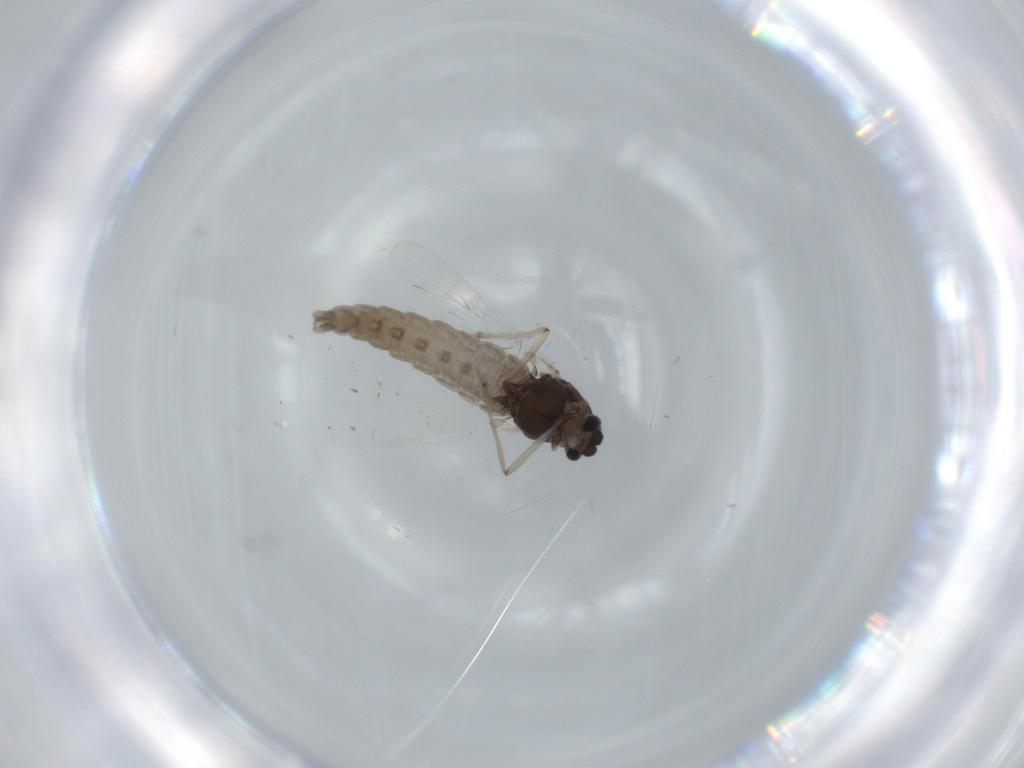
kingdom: Animalia
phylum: Arthropoda
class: Insecta
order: Diptera
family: Chironomidae
